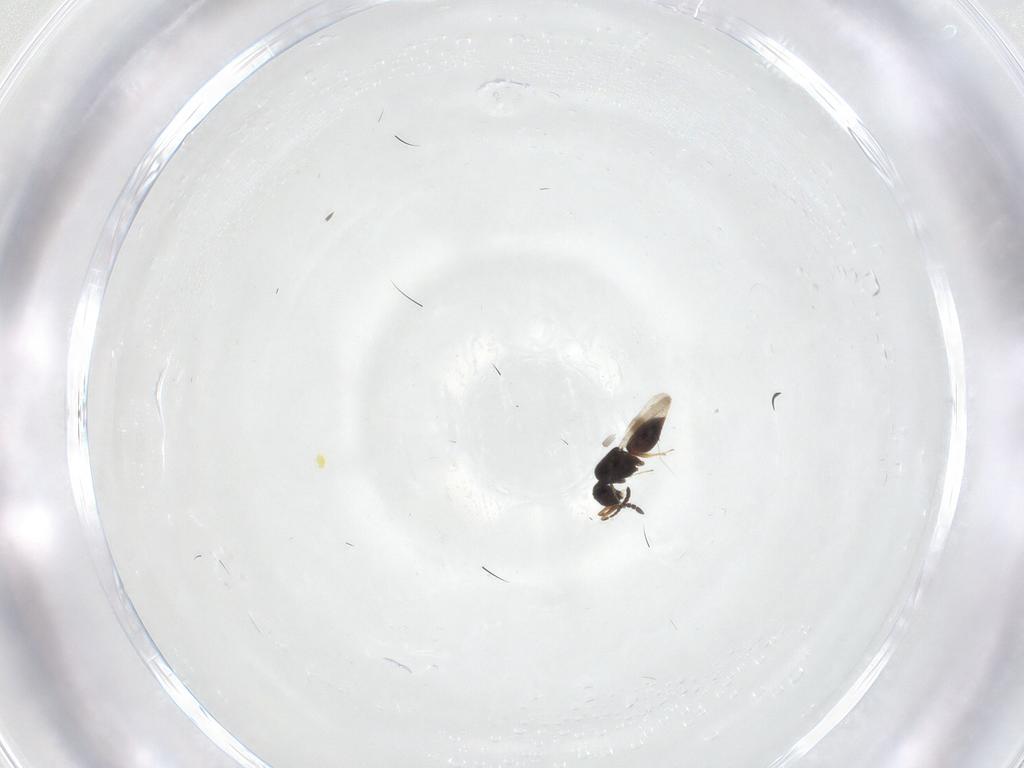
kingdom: Animalia
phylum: Arthropoda
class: Insecta
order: Hymenoptera
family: Ceraphronidae
